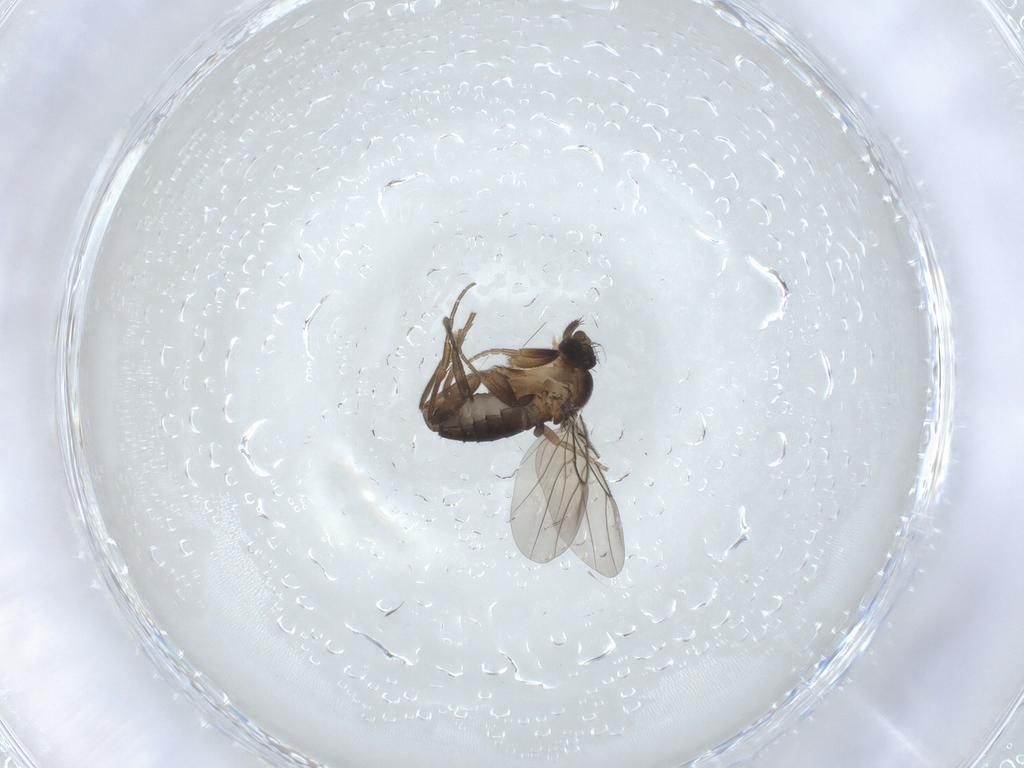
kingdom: Animalia
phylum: Arthropoda
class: Insecta
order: Diptera
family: Phoridae
